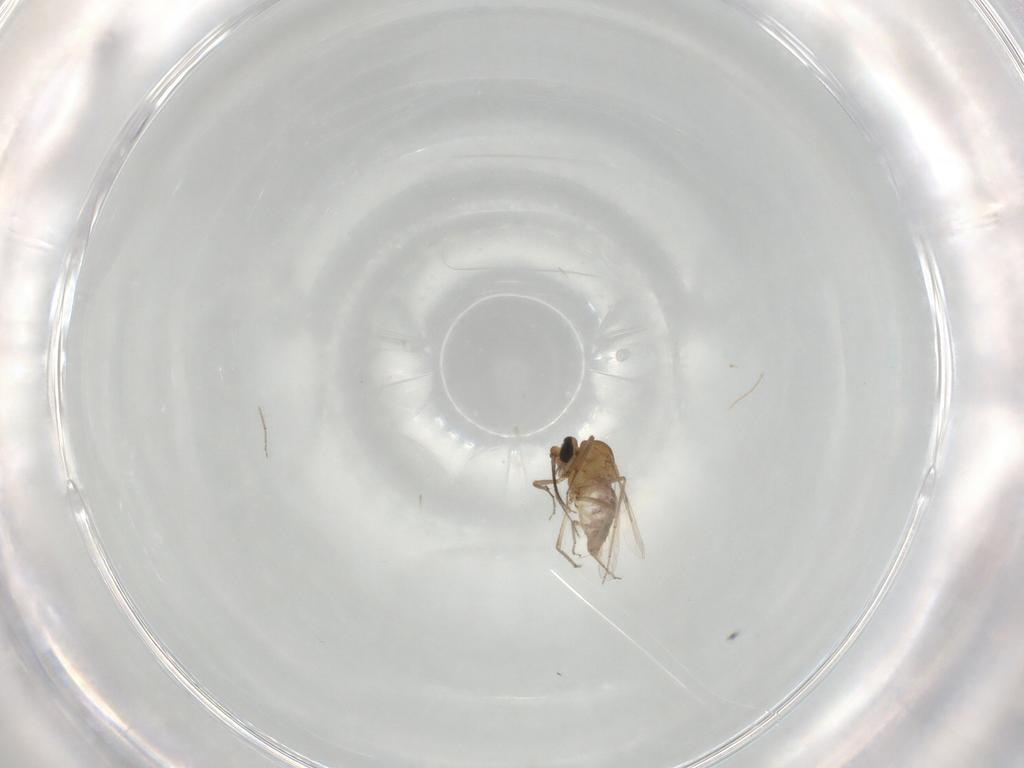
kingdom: Animalia
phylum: Arthropoda
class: Insecta
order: Diptera
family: Ceratopogonidae
